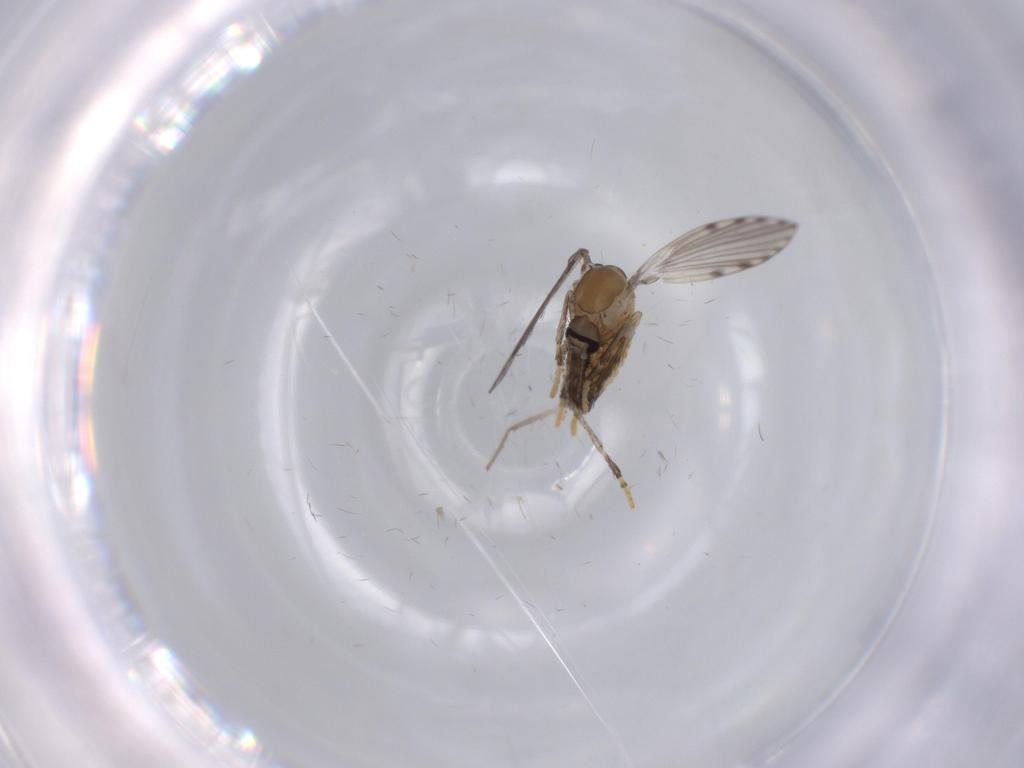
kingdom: Animalia
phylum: Arthropoda
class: Insecta
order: Diptera
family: Psychodidae
